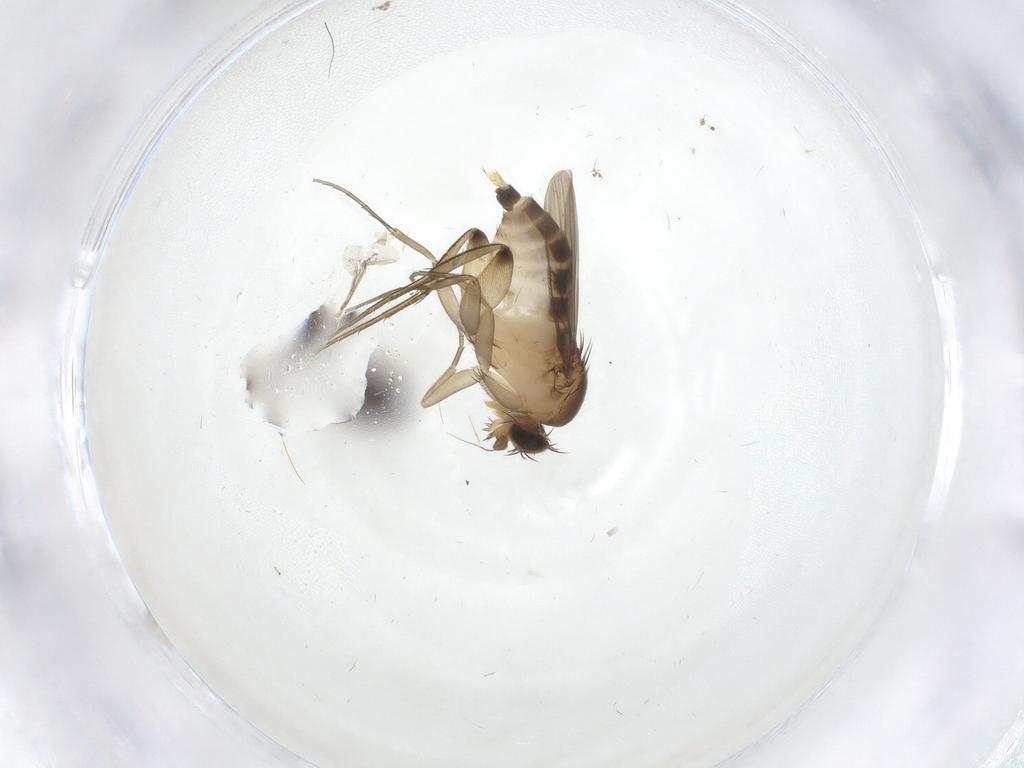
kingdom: Animalia
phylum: Arthropoda
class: Insecta
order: Diptera
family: Phoridae
